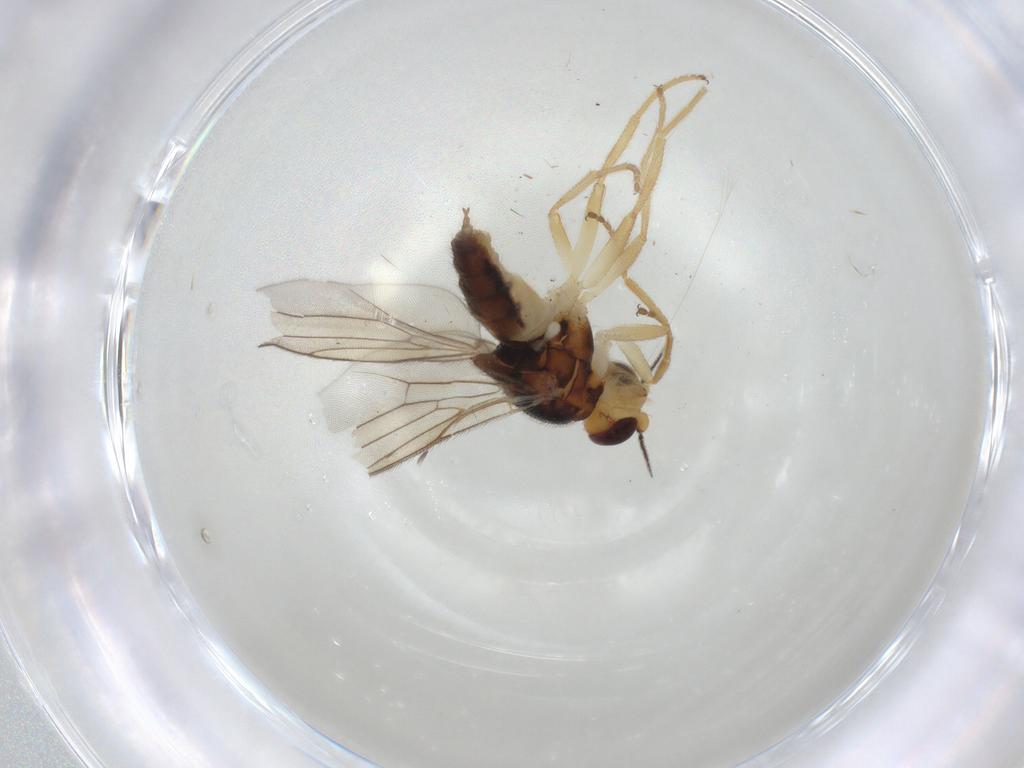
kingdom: Animalia
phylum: Arthropoda
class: Insecta
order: Diptera
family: Chloropidae
